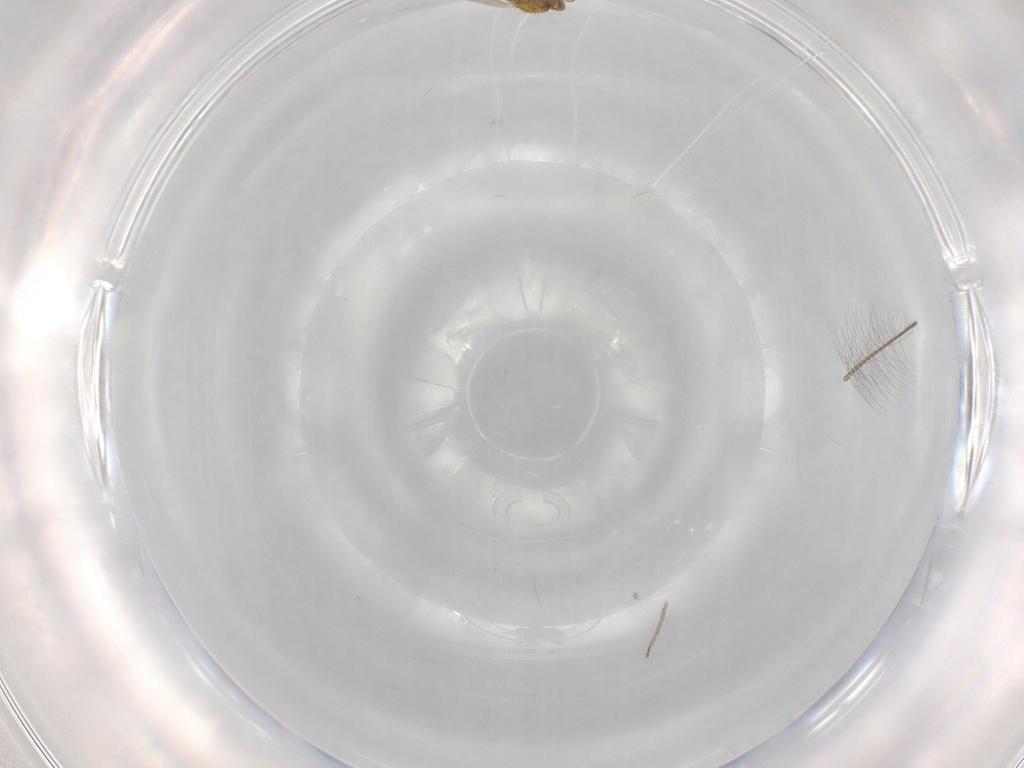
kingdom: Animalia
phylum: Arthropoda
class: Insecta
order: Hymenoptera
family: Aphelinidae
